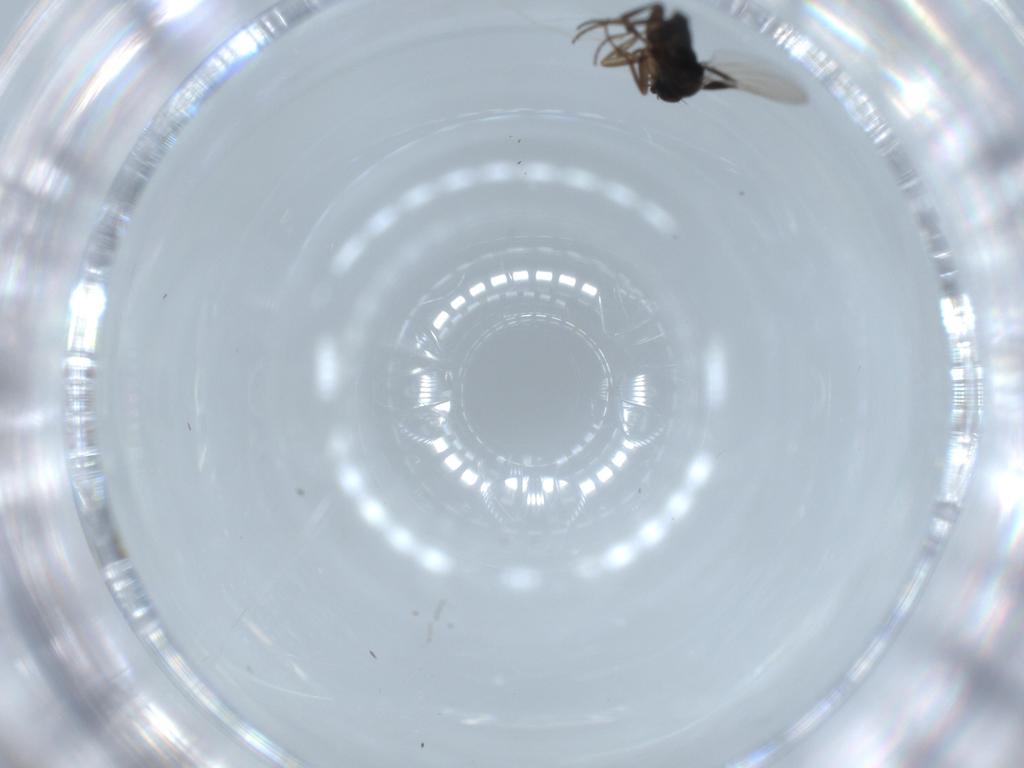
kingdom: Animalia
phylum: Arthropoda
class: Insecta
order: Diptera
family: Phoridae
